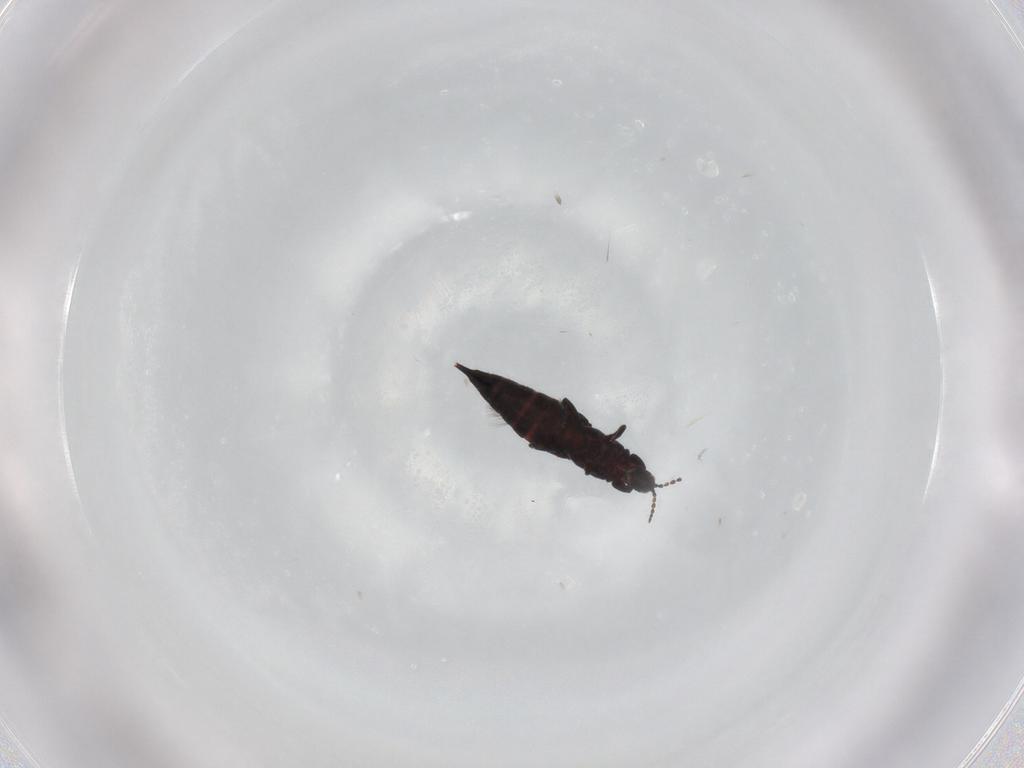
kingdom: Animalia
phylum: Arthropoda
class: Insecta
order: Thysanoptera
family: Phlaeothripidae
